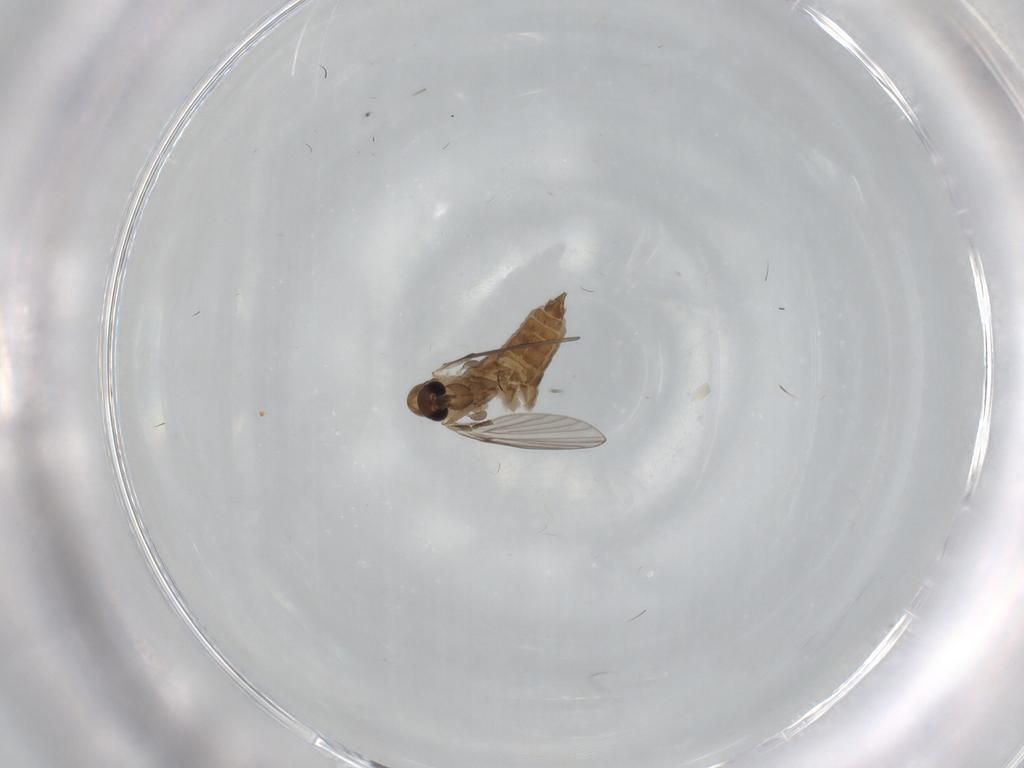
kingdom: Animalia
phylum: Arthropoda
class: Insecta
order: Diptera
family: Psychodidae
